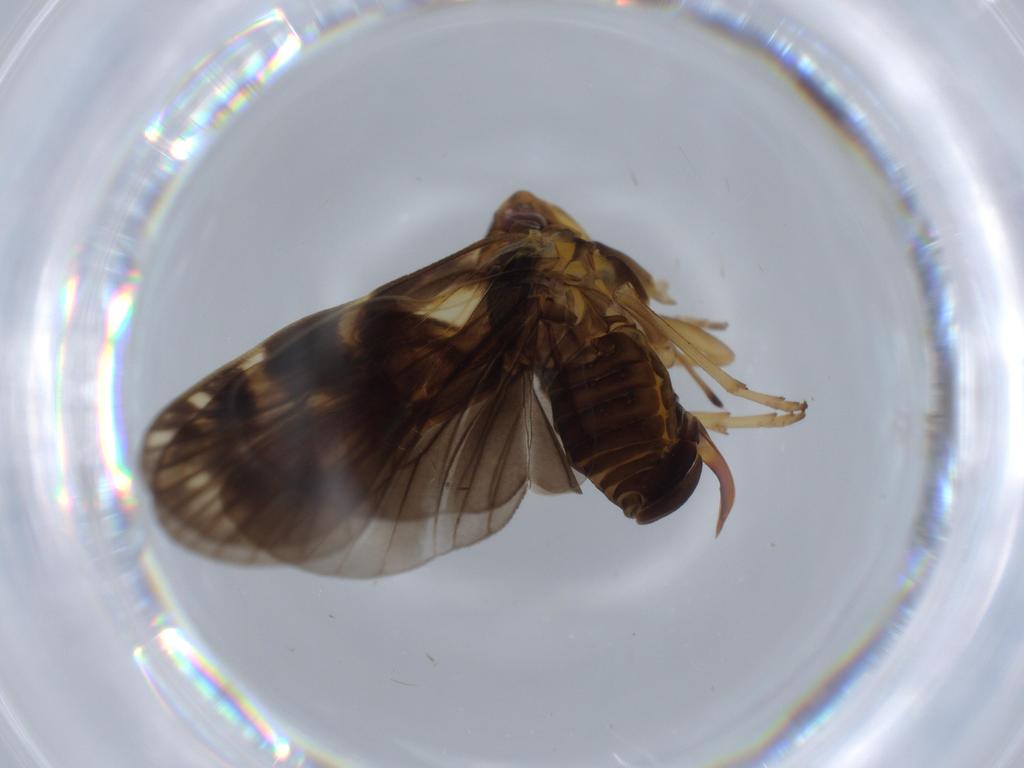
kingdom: Animalia
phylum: Arthropoda
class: Insecta
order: Hemiptera
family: Cixiidae
